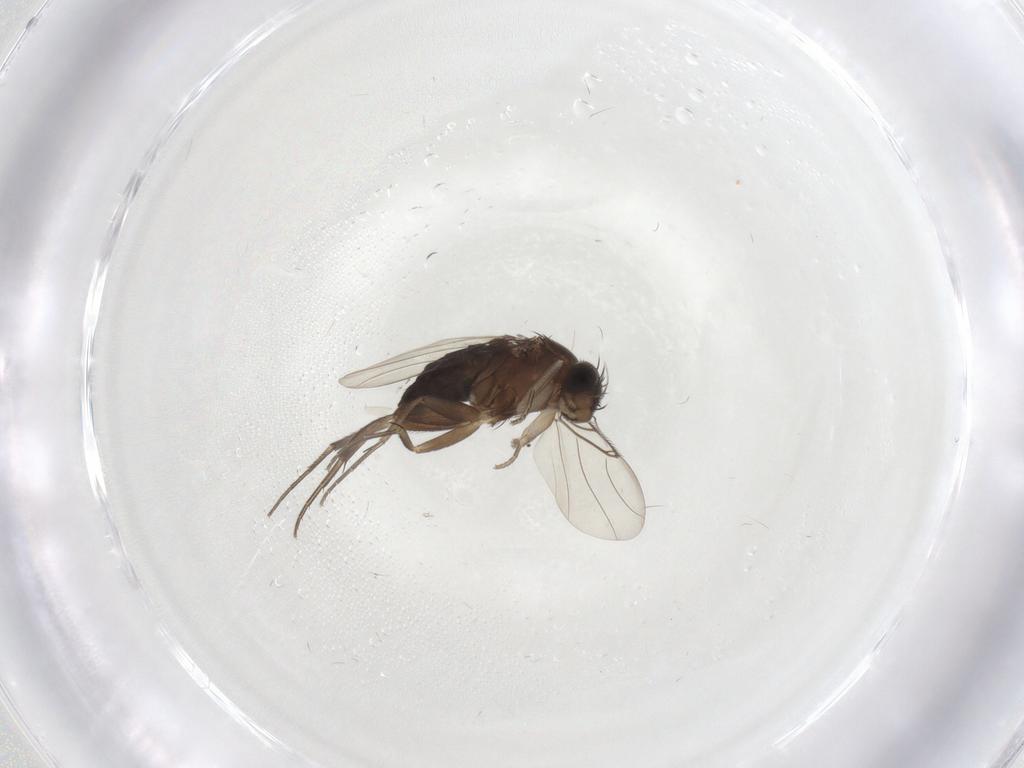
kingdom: Animalia
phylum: Arthropoda
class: Insecta
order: Diptera
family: Phoridae
